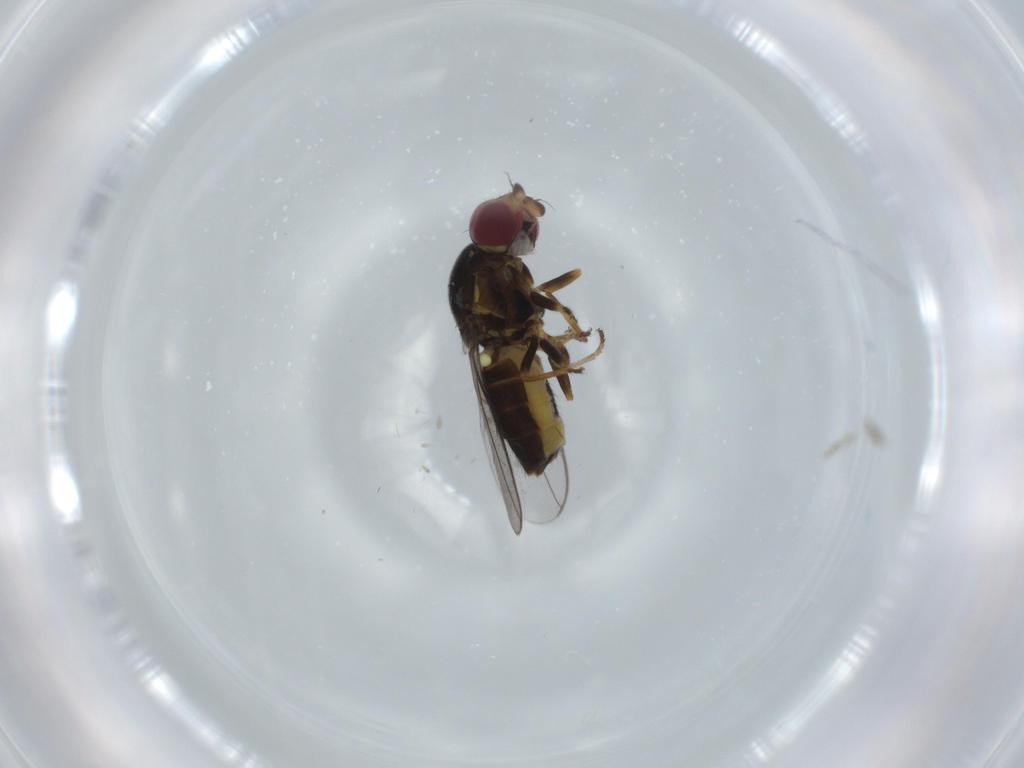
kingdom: Animalia
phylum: Arthropoda
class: Insecta
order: Diptera
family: Chloropidae
